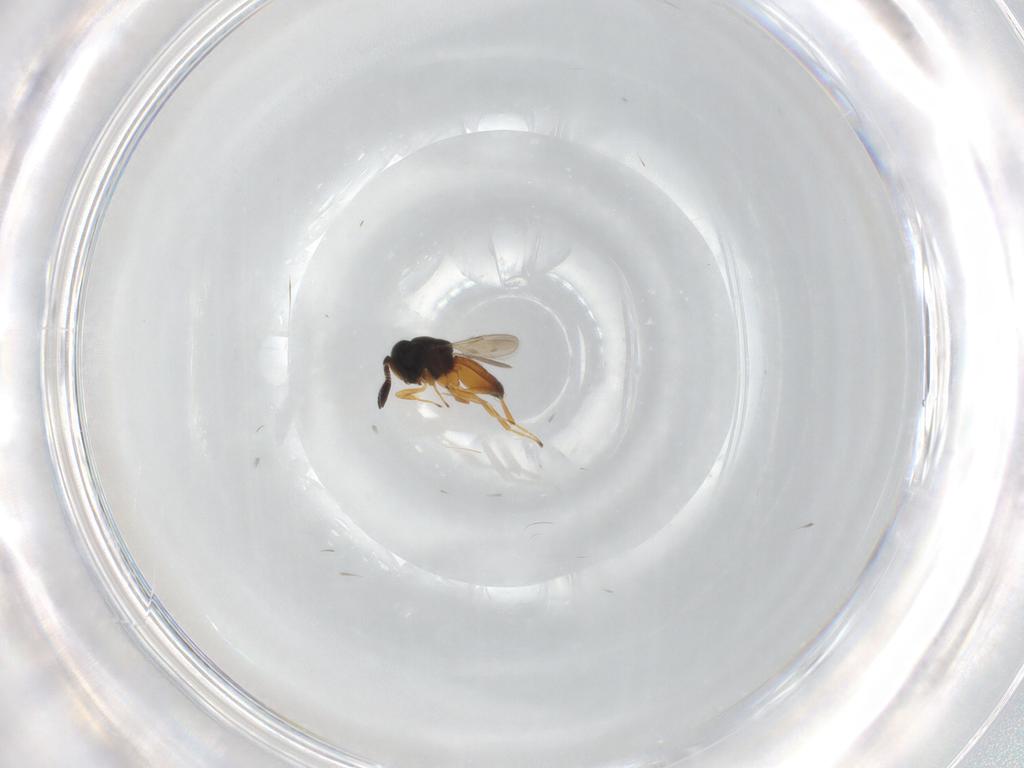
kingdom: Animalia
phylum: Arthropoda
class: Insecta
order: Hymenoptera
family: Scelionidae
